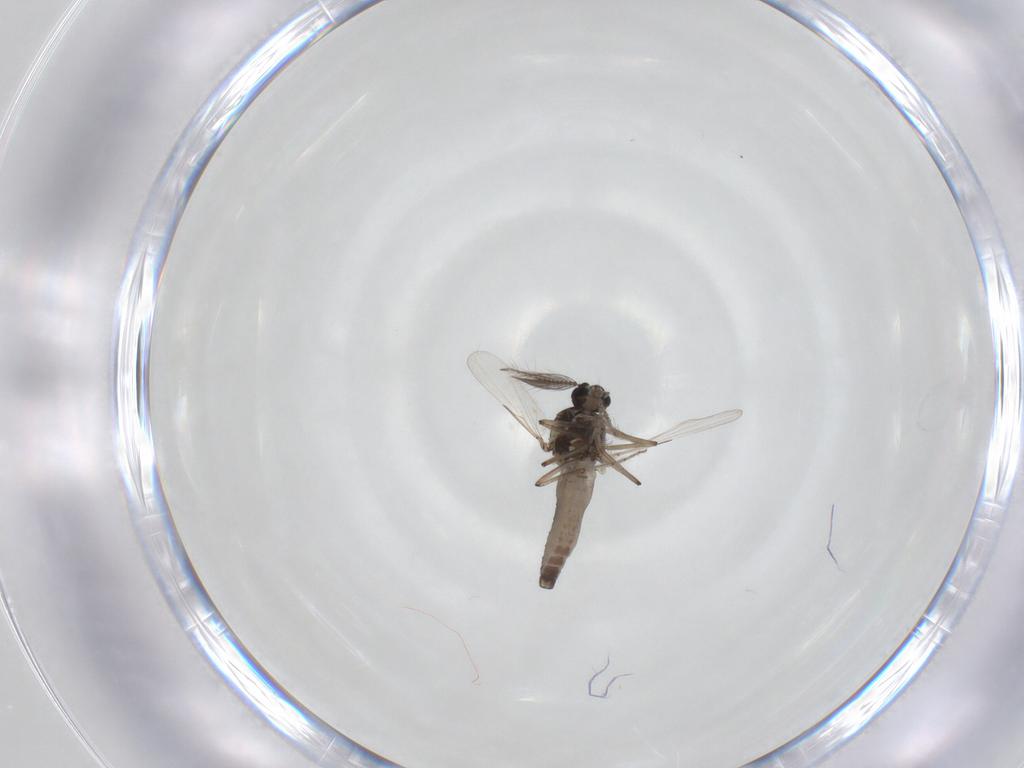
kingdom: Animalia
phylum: Arthropoda
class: Insecta
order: Diptera
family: Ceratopogonidae
